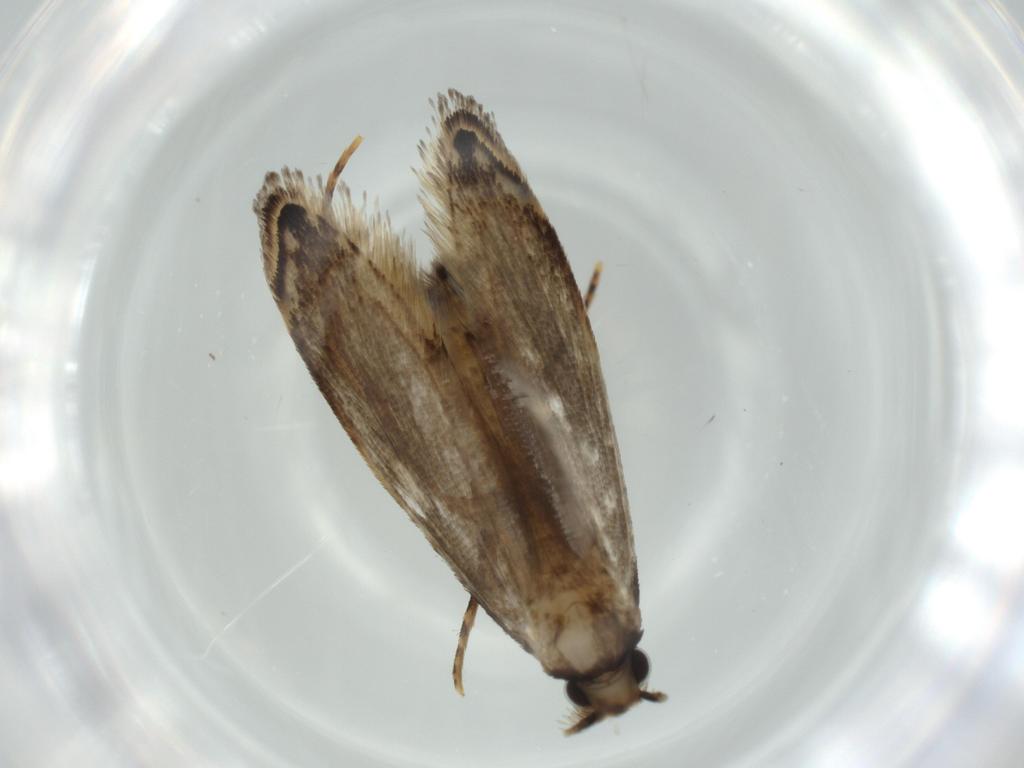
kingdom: Animalia
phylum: Arthropoda
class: Insecta
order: Lepidoptera
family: Tineidae
